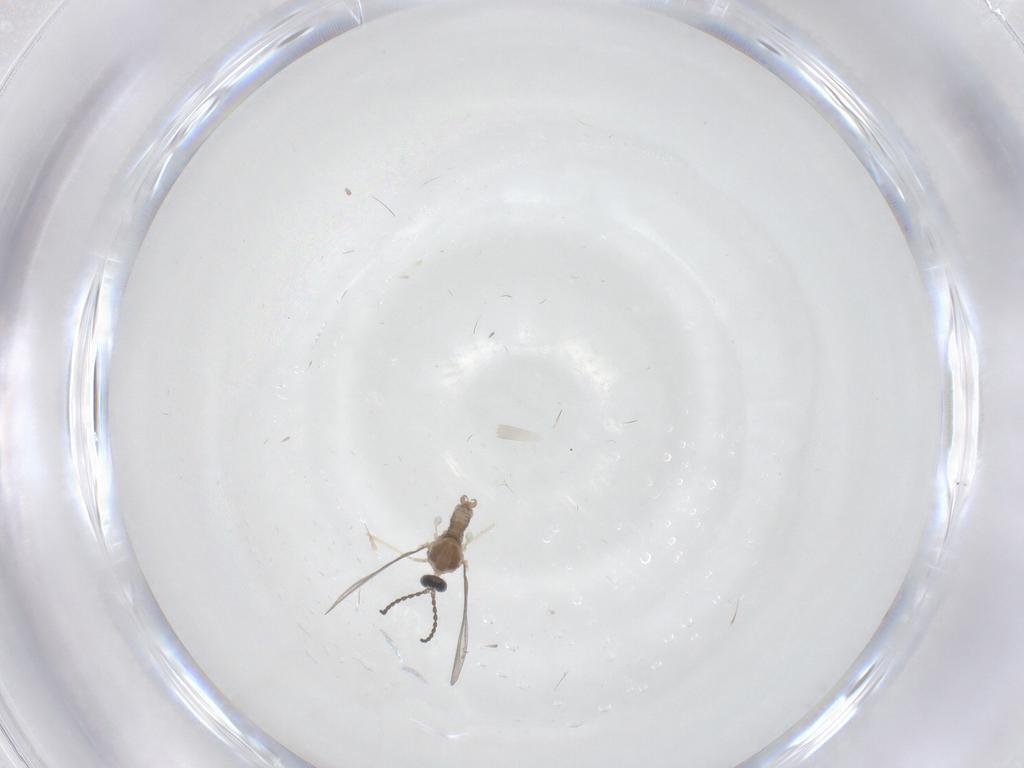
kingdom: Animalia
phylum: Arthropoda
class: Insecta
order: Diptera
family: Cecidomyiidae
